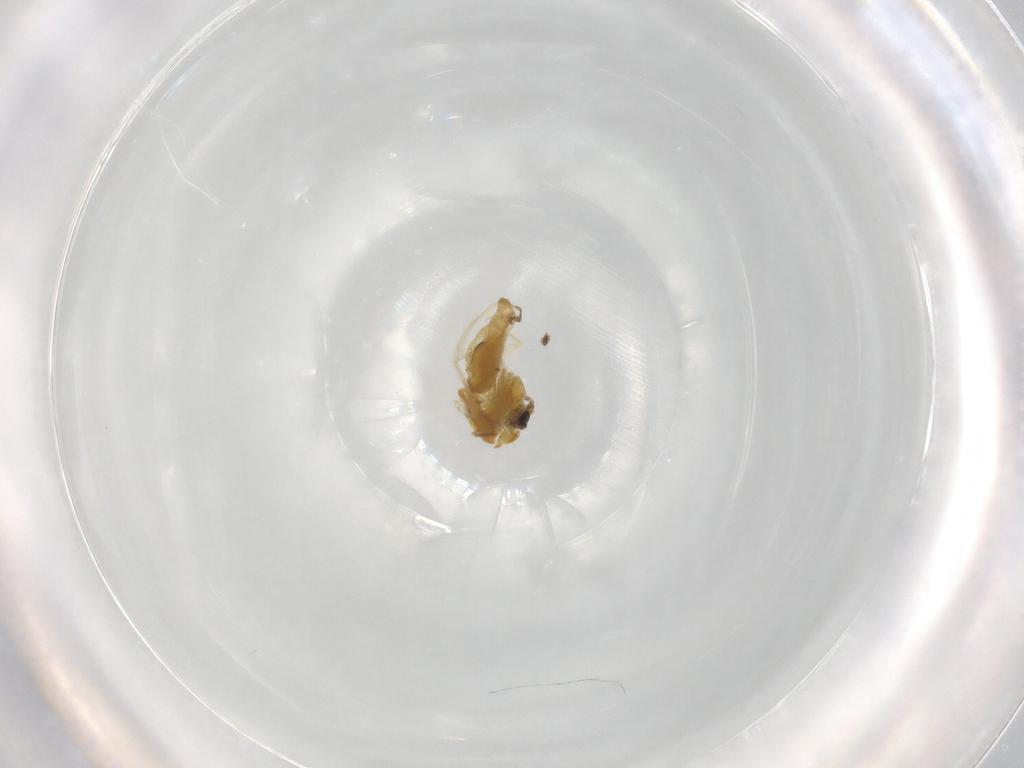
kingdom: Animalia
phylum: Arthropoda
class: Insecta
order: Diptera
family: Chironomidae
